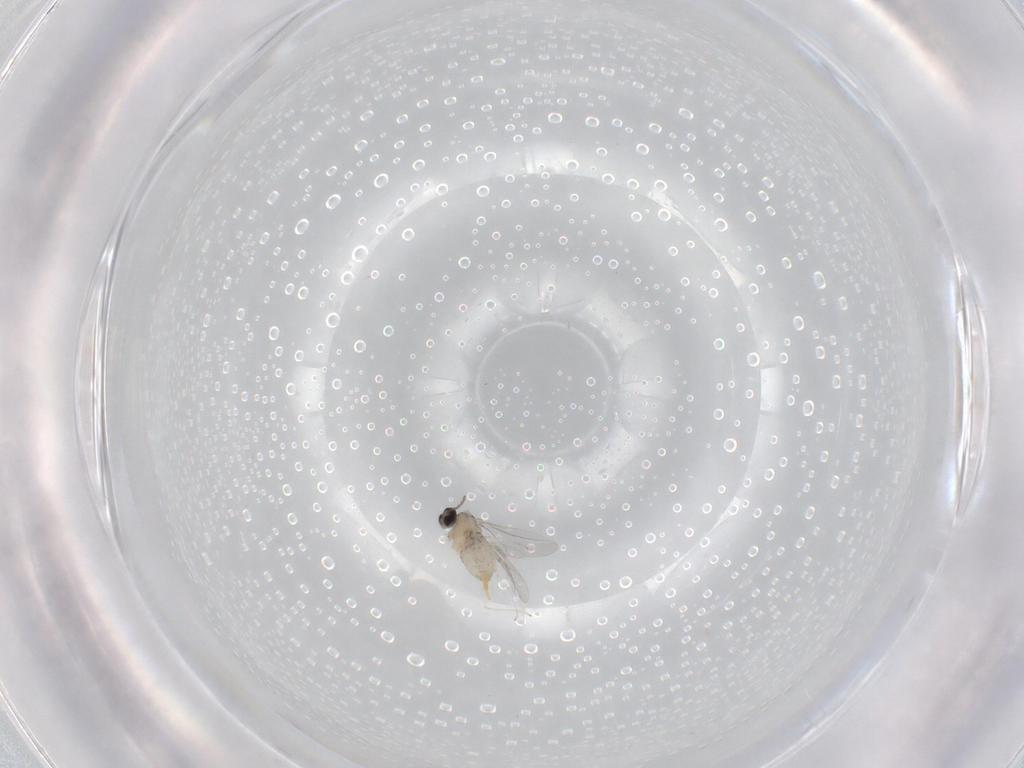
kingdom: Animalia
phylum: Arthropoda
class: Insecta
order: Diptera
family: Cecidomyiidae
